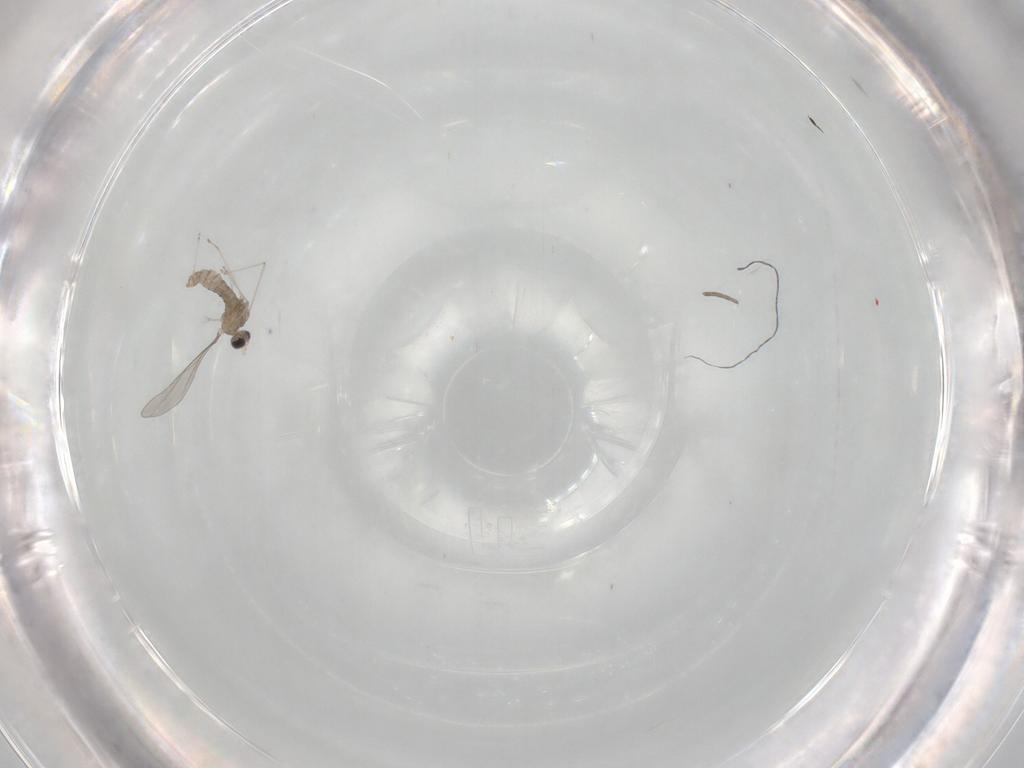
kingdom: Animalia
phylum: Arthropoda
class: Insecta
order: Diptera
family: Cecidomyiidae
